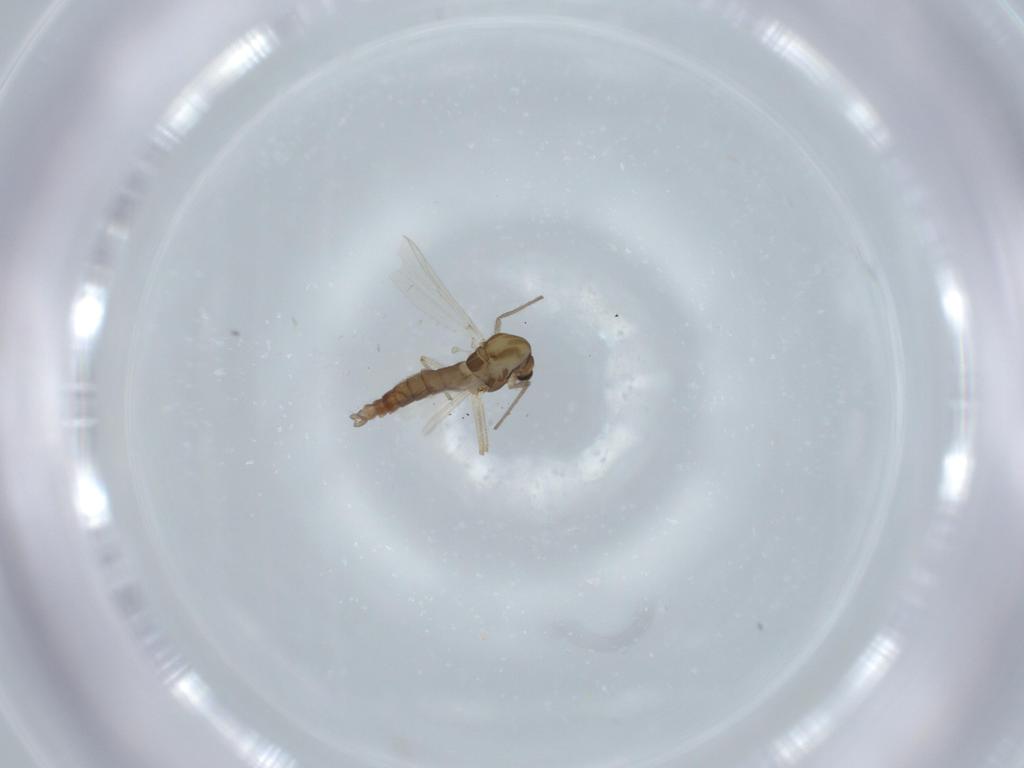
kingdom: Animalia
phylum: Arthropoda
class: Insecta
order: Diptera
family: Chironomidae
